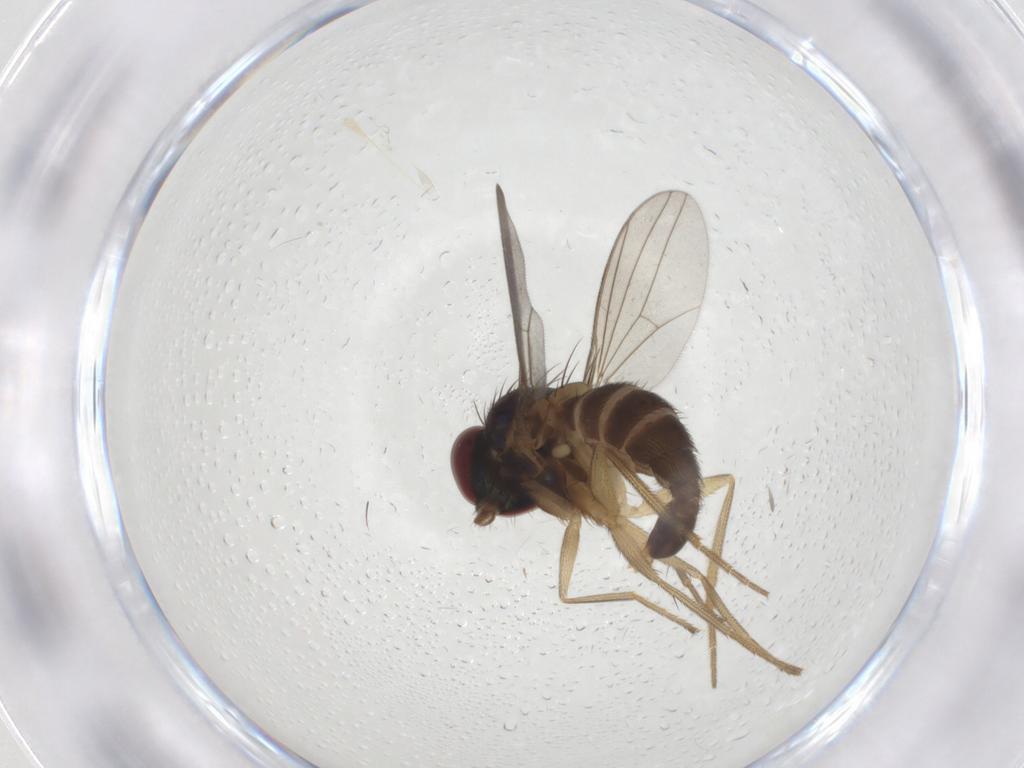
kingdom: Animalia
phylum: Arthropoda
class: Insecta
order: Diptera
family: Dolichopodidae
